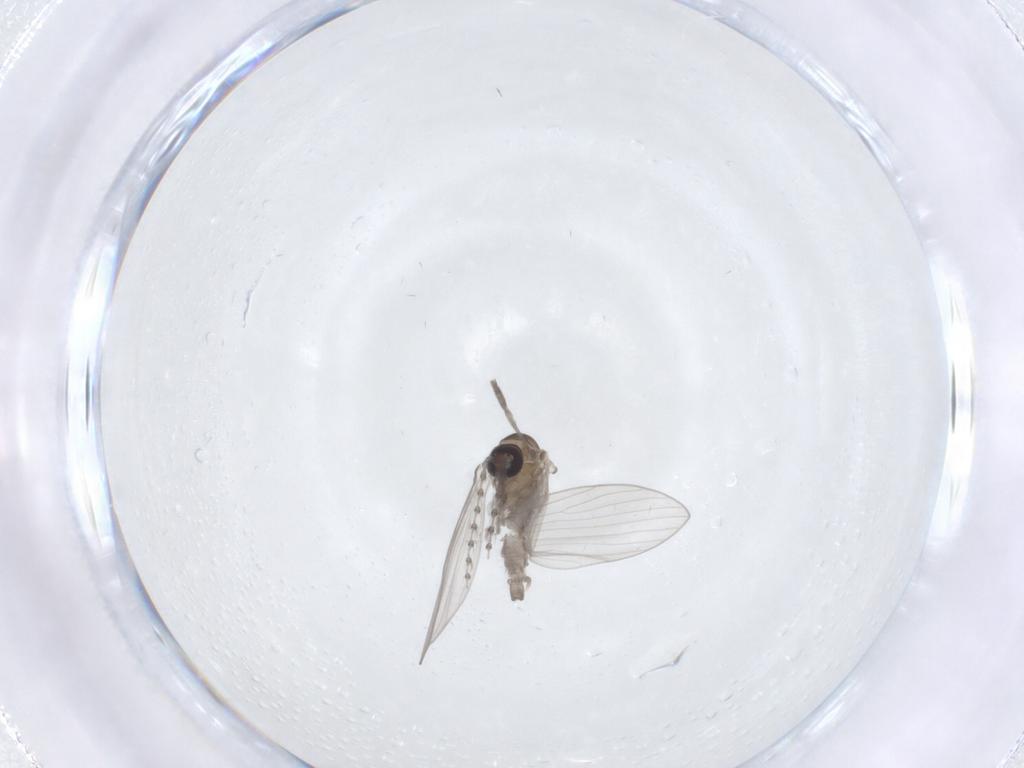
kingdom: Animalia
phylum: Arthropoda
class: Insecta
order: Diptera
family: Psychodidae
